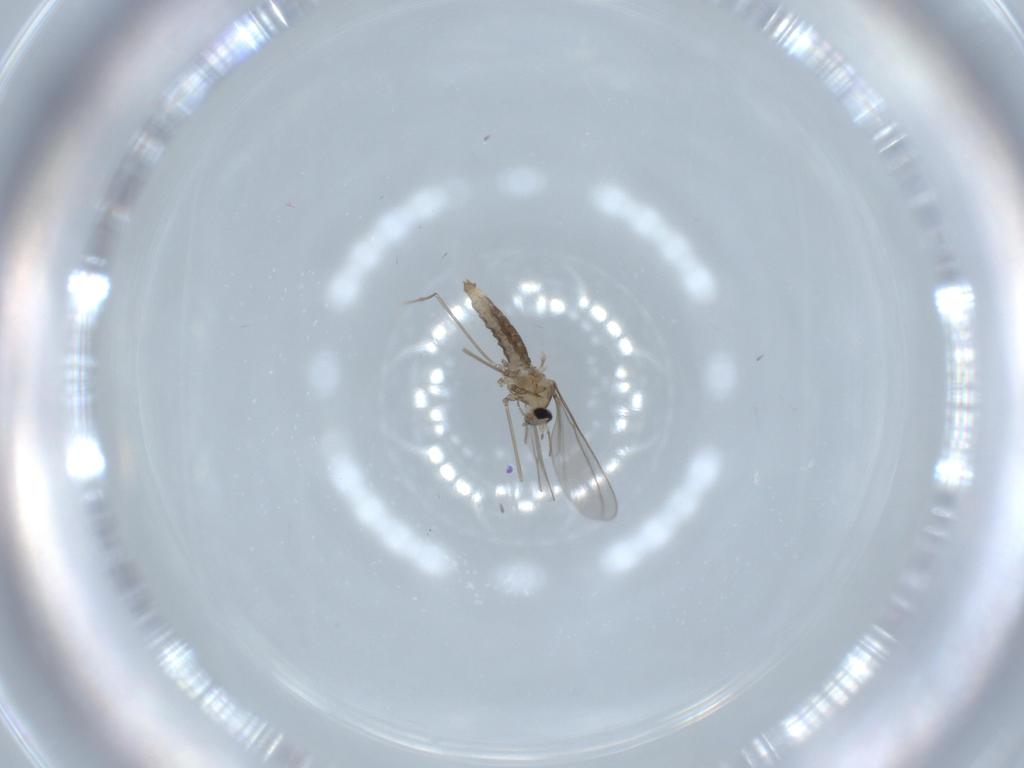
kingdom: Animalia
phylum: Arthropoda
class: Insecta
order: Diptera
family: Cecidomyiidae
